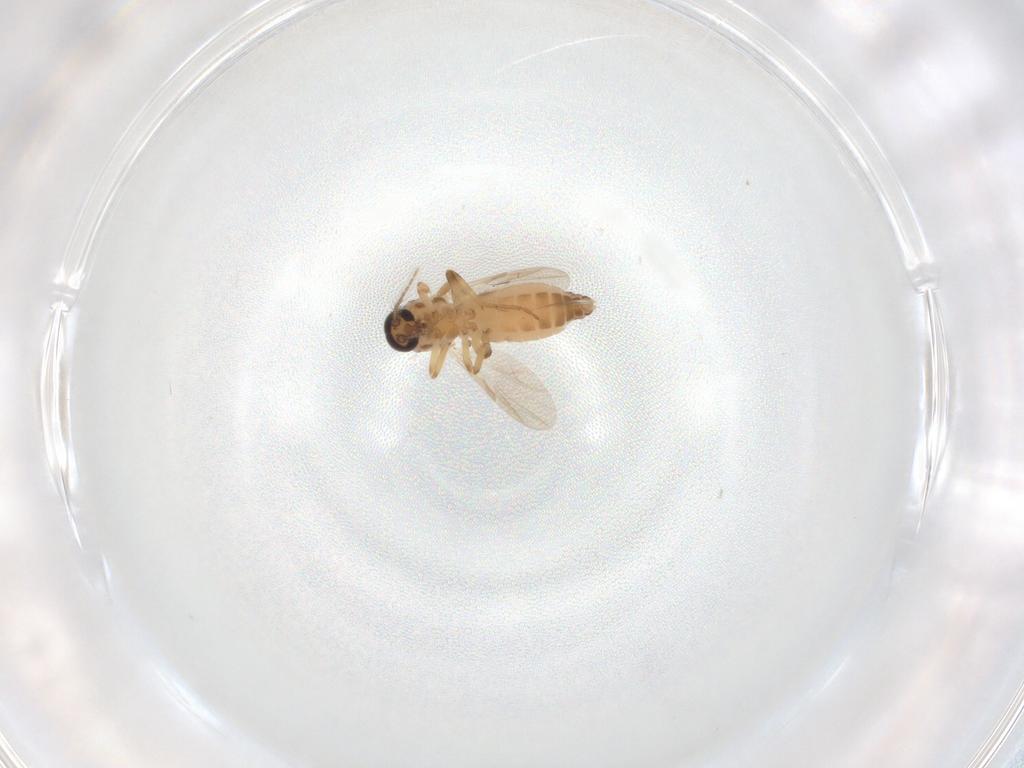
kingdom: Animalia
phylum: Arthropoda
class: Insecta
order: Diptera
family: Ceratopogonidae
